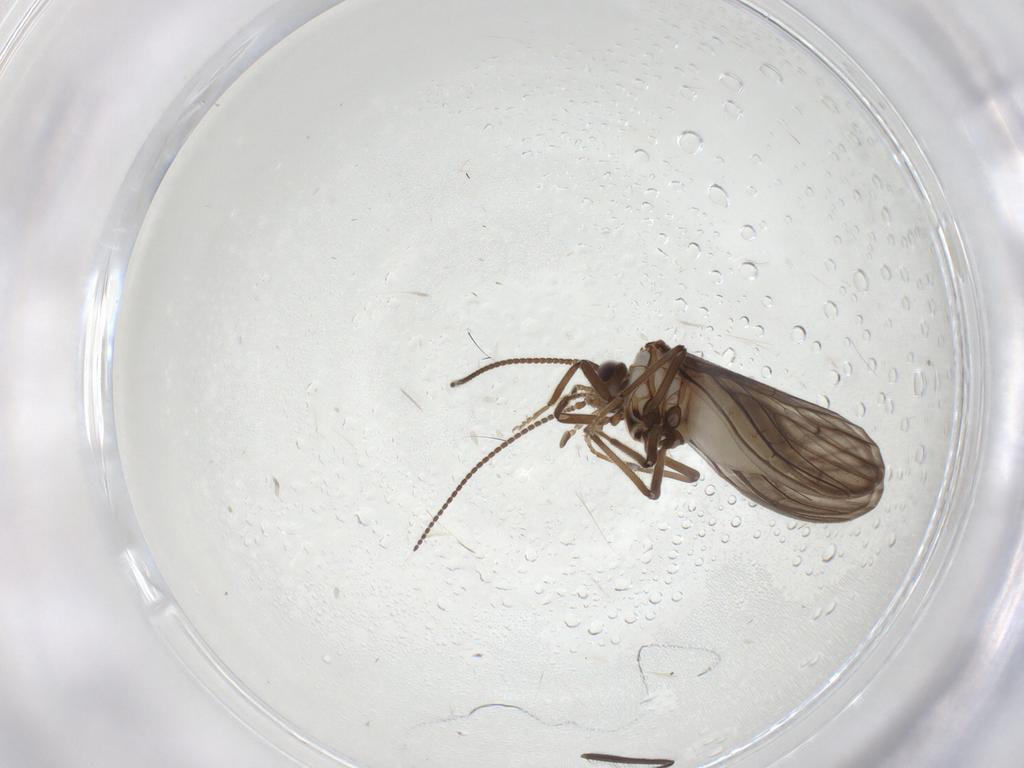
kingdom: Animalia
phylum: Arthropoda
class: Insecta
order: Neuroptera
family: Coniopterygidae
